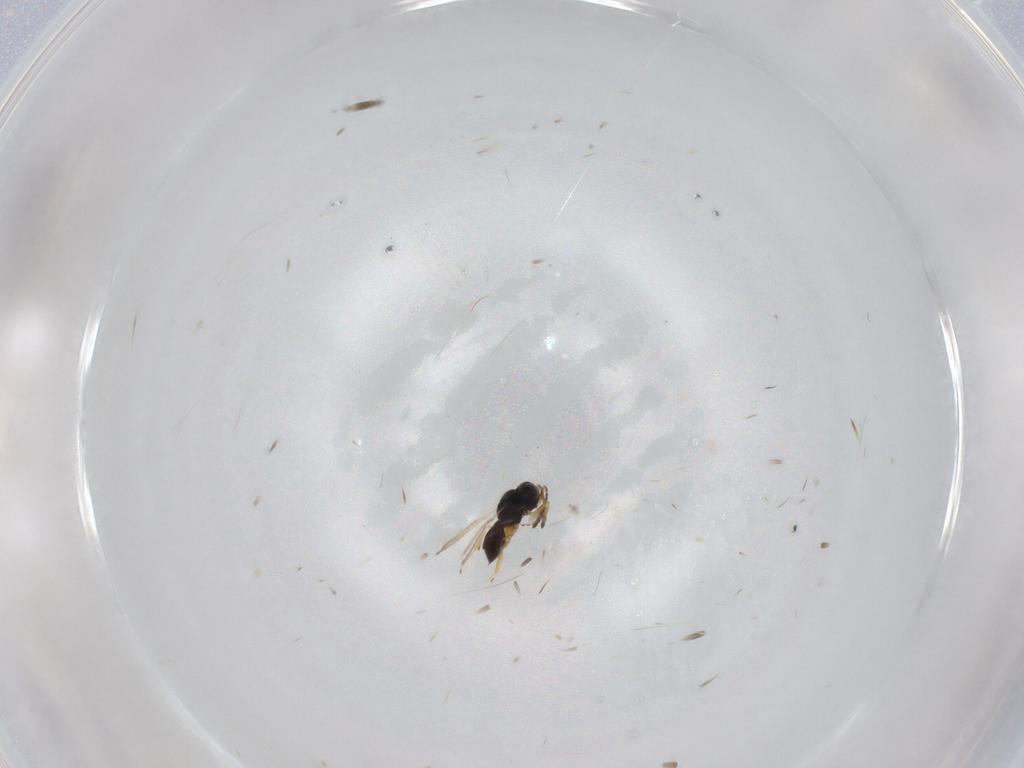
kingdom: Animalia
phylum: Arthropoda
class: Insecta
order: Hymenoptera
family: Scelionidae
